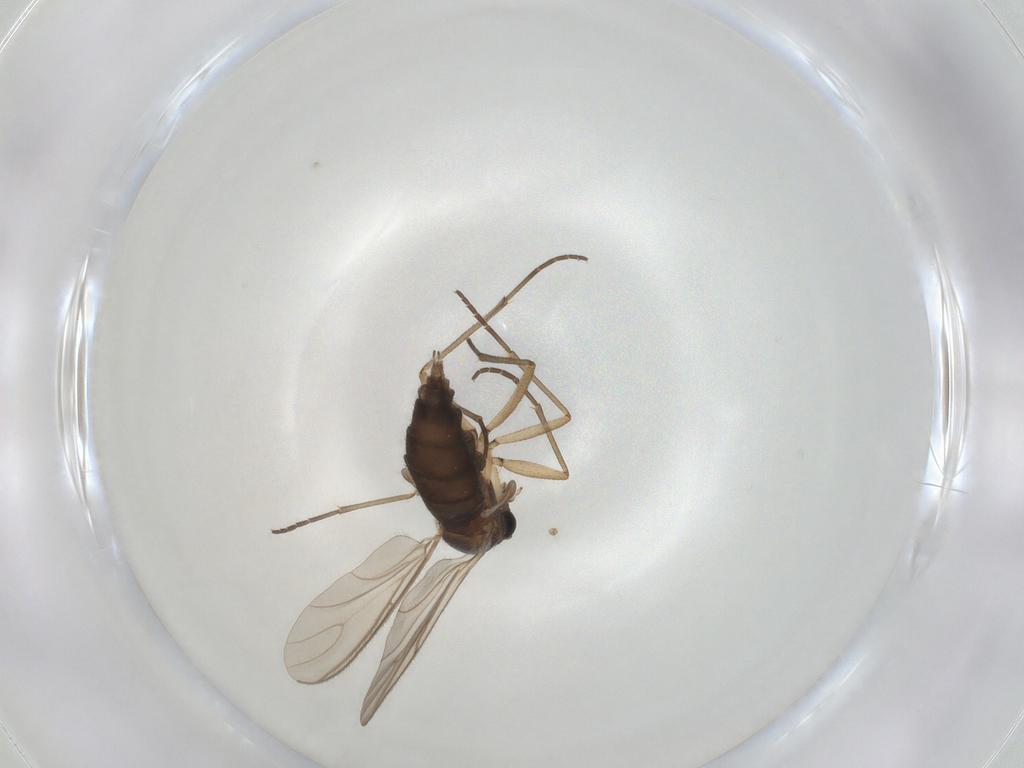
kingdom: Animalia
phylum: Arthropoda
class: Insecta
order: Diptera
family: Sciaridae
